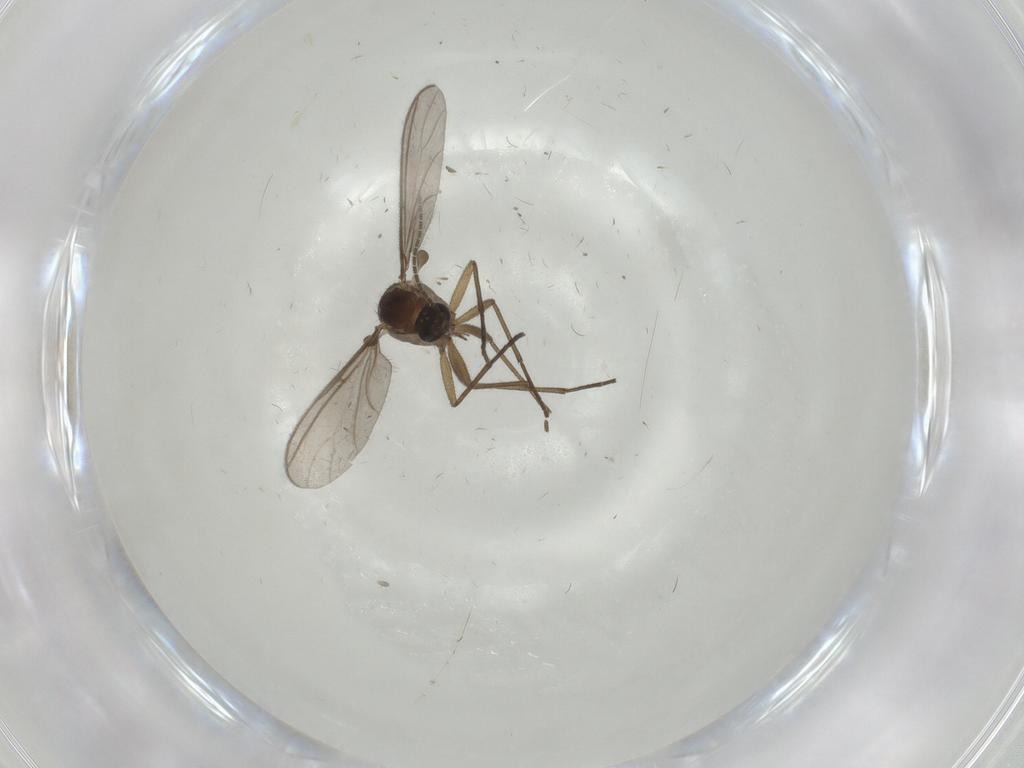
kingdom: Animalia
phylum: Arthropoda
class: Insecta
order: Diptera
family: Sciaridae
